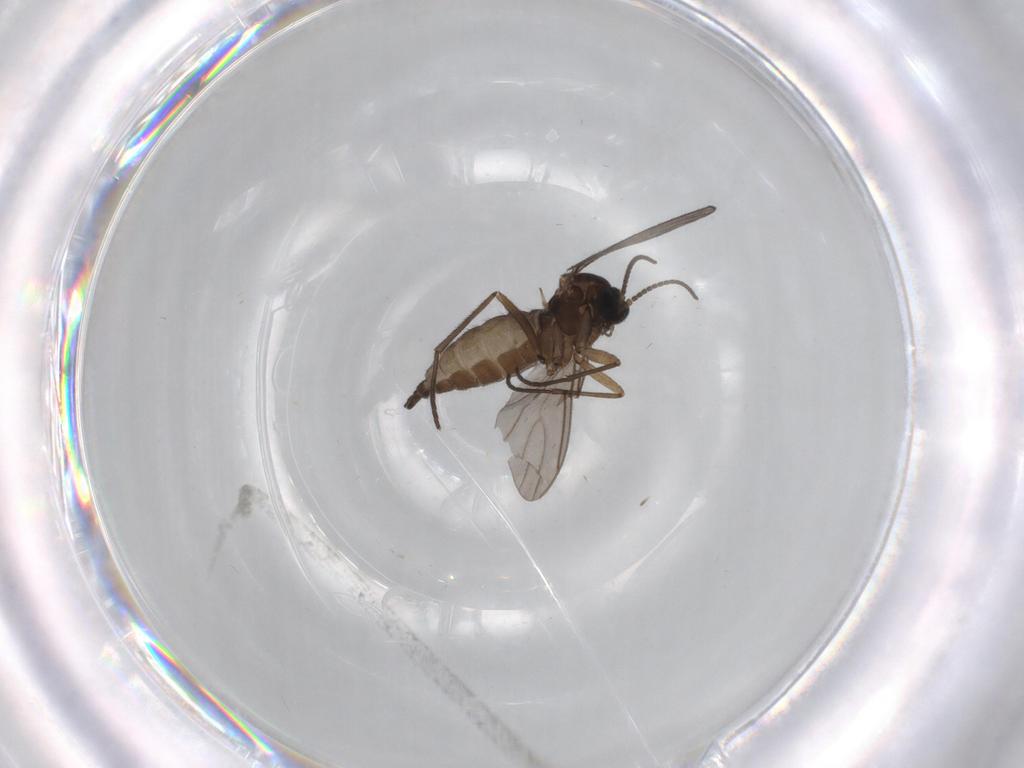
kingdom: Animalia
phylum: Arthropoda
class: Insecta
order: Diptera
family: Sciaridae
